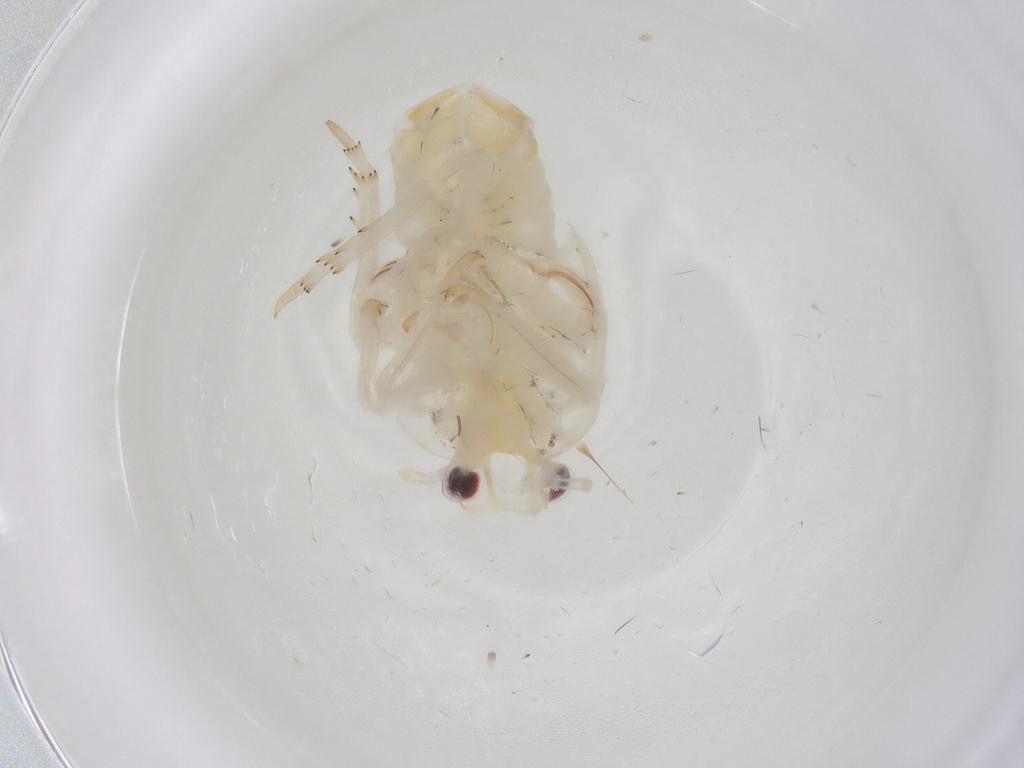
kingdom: Animalia
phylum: Arthropoda
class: Insecta
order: Hemiptera
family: Flatidae
